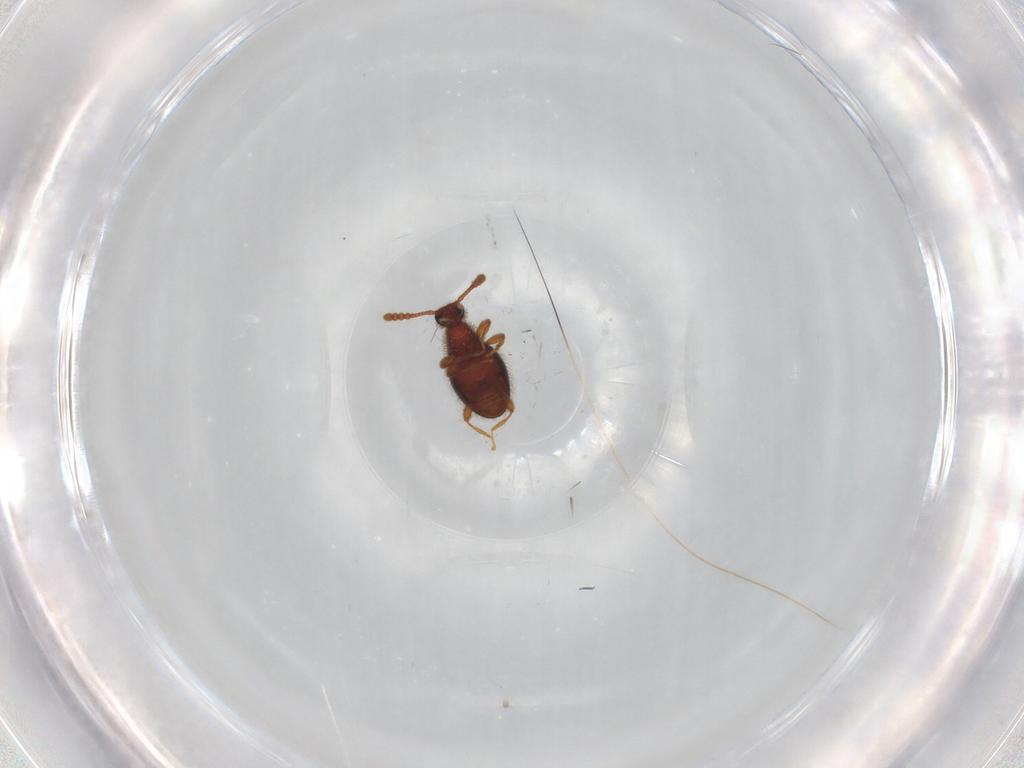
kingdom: Animalia
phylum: Arthropoda
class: Insecta
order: Coleoptera
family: Staphylinidae
